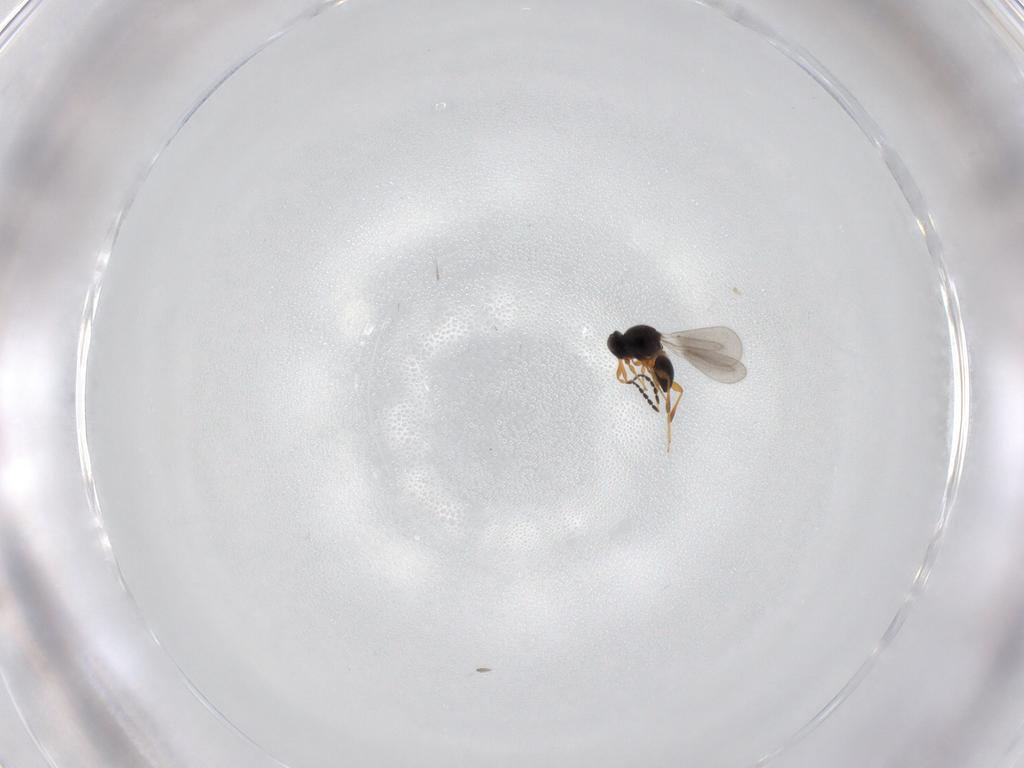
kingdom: Animalia
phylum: Arthropoda
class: Insecta
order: Hymenoptera
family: Platygastridae
